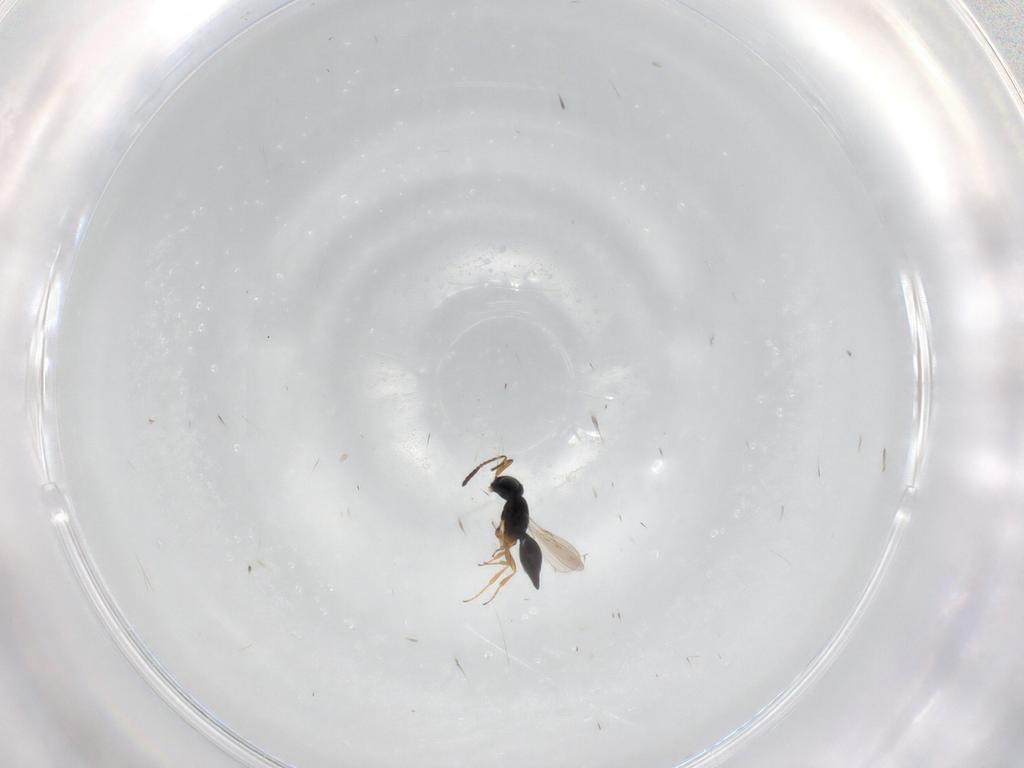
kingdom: Animalia
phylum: Arthropoda
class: Insecta
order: Hymenoptera
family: Scelionidae
